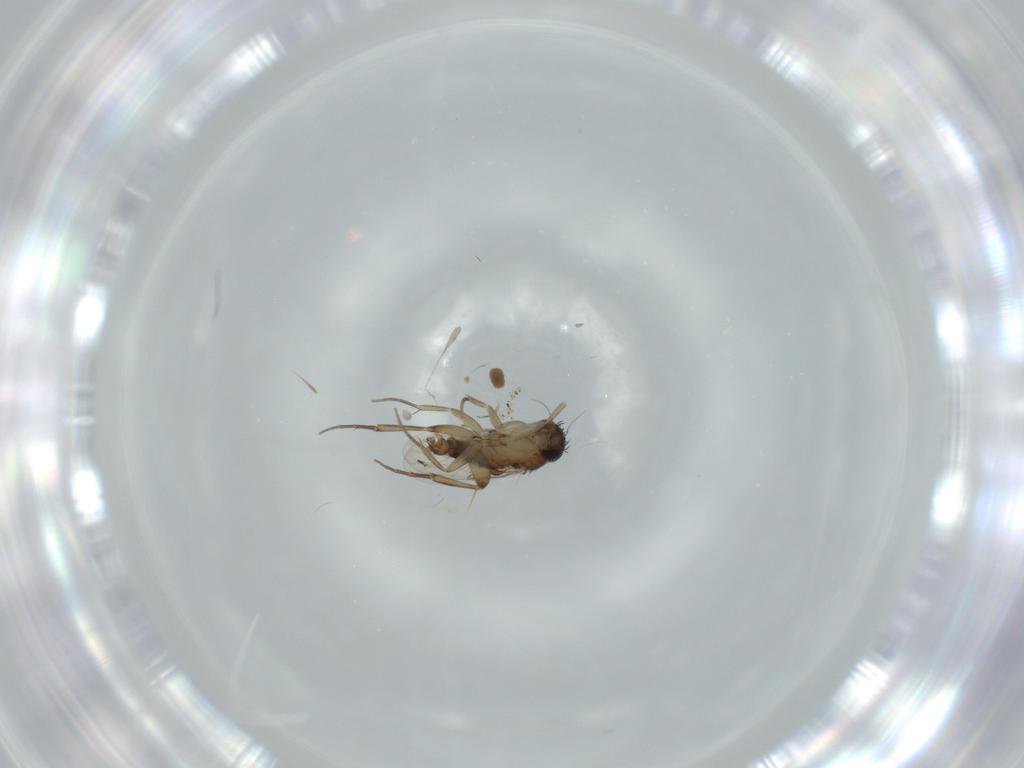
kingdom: Animalia
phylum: Arthropoda
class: Insecta
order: Diptera
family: Phoridae
